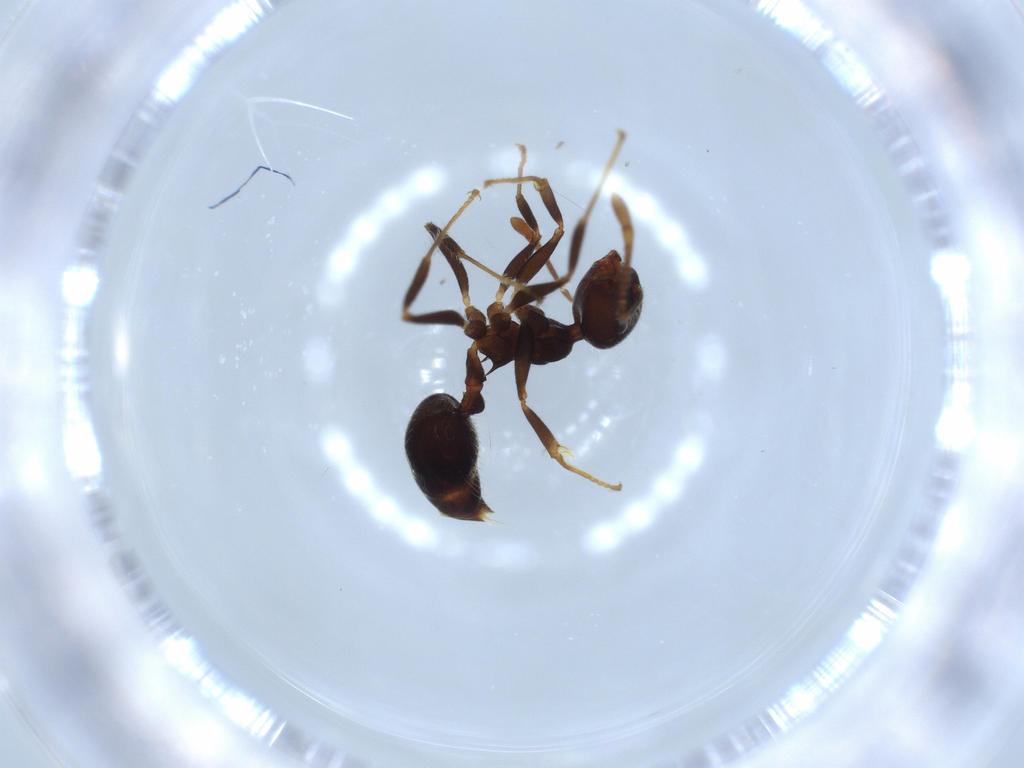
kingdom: Animalia
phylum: Arthropoda
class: Insecta
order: Hymenoptera
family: Formicidae
